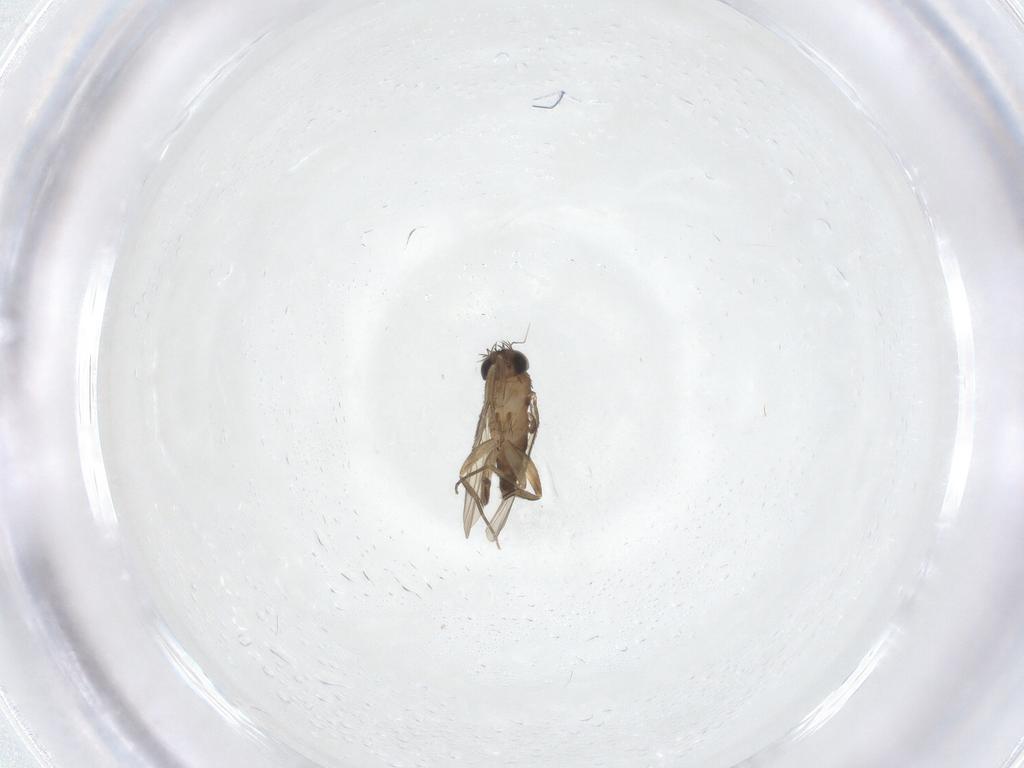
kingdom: Animalia
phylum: Arthropoda
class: Insecta
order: Diptera
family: Phoridae
